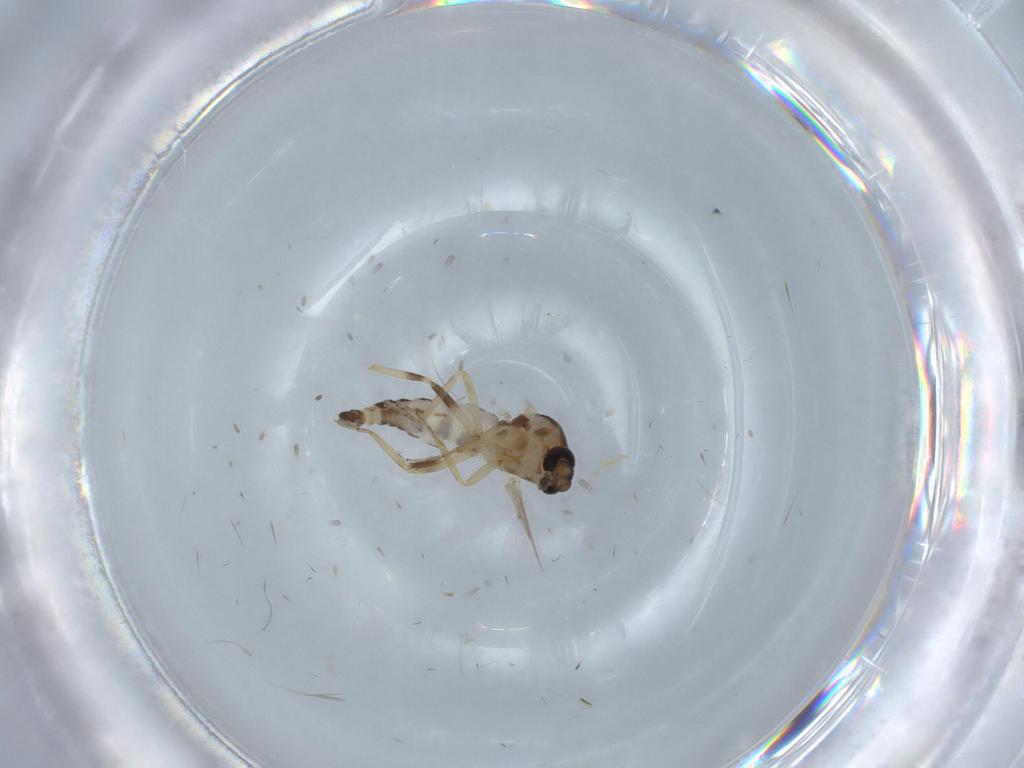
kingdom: Animalia
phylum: Arthropoda
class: Insecta
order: Diptera
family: Ceratopogonidae
